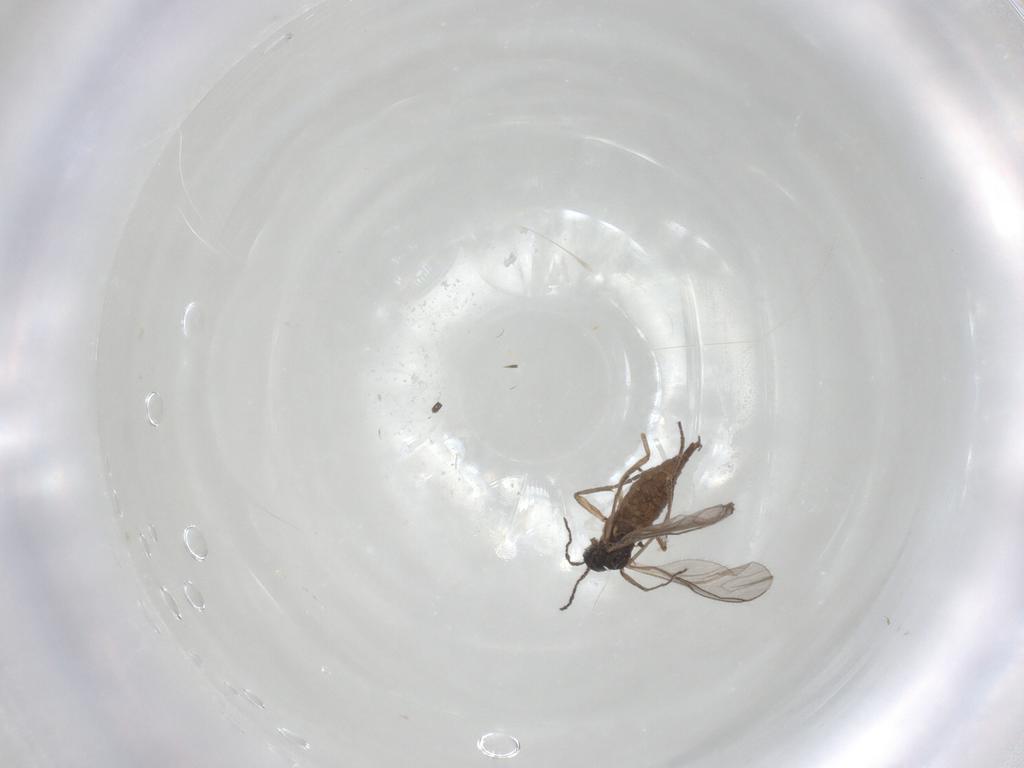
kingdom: Animalia
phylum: Arthropoda
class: Insecta
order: Diptera
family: Sciaridae
